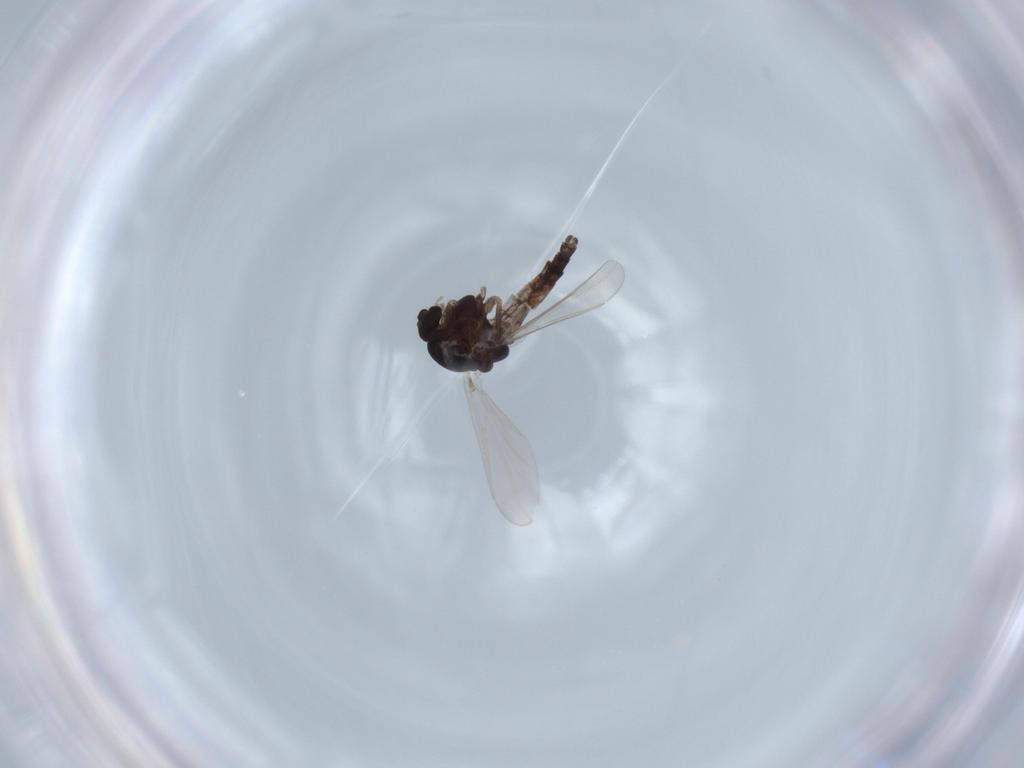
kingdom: Animalia
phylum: Arthropoda
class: Insecta
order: Diptera
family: Chironomidae
